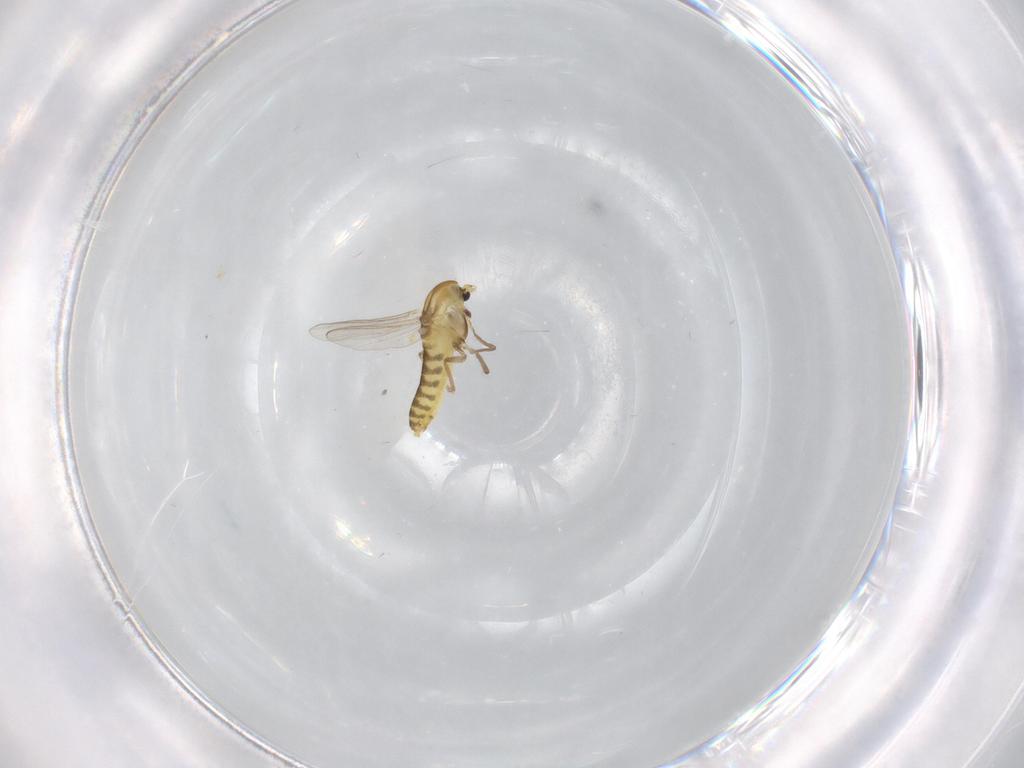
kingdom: Animalia
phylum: Arthropoda
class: Insecta
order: Diptera
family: Chironomidae
